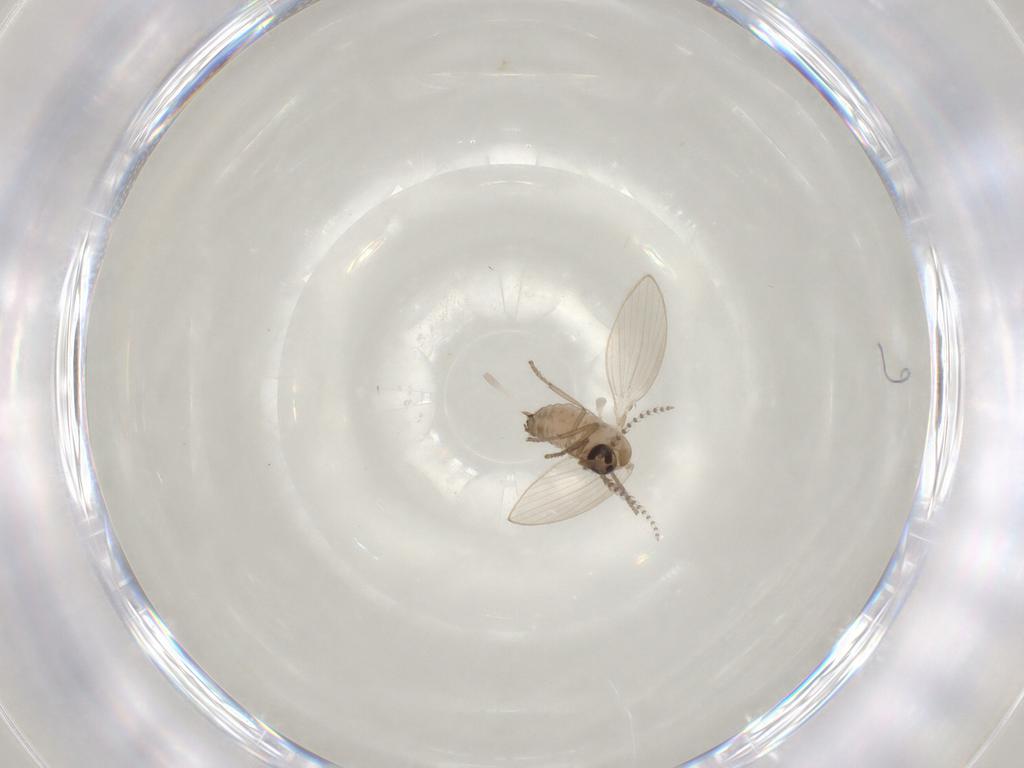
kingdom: Animalia
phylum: Arthropoda
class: Insecta
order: Diptera
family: Psychodidae
